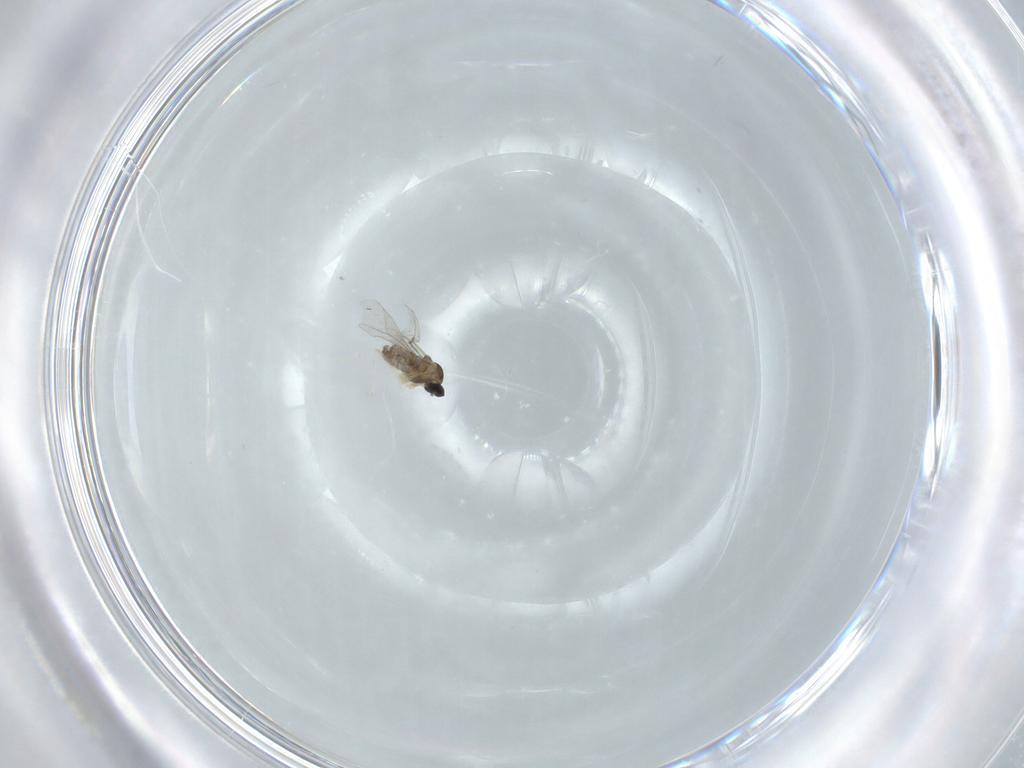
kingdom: Animalia
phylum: Arthropoda
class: Insecta
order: Diptera
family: Cecidomyiidae
